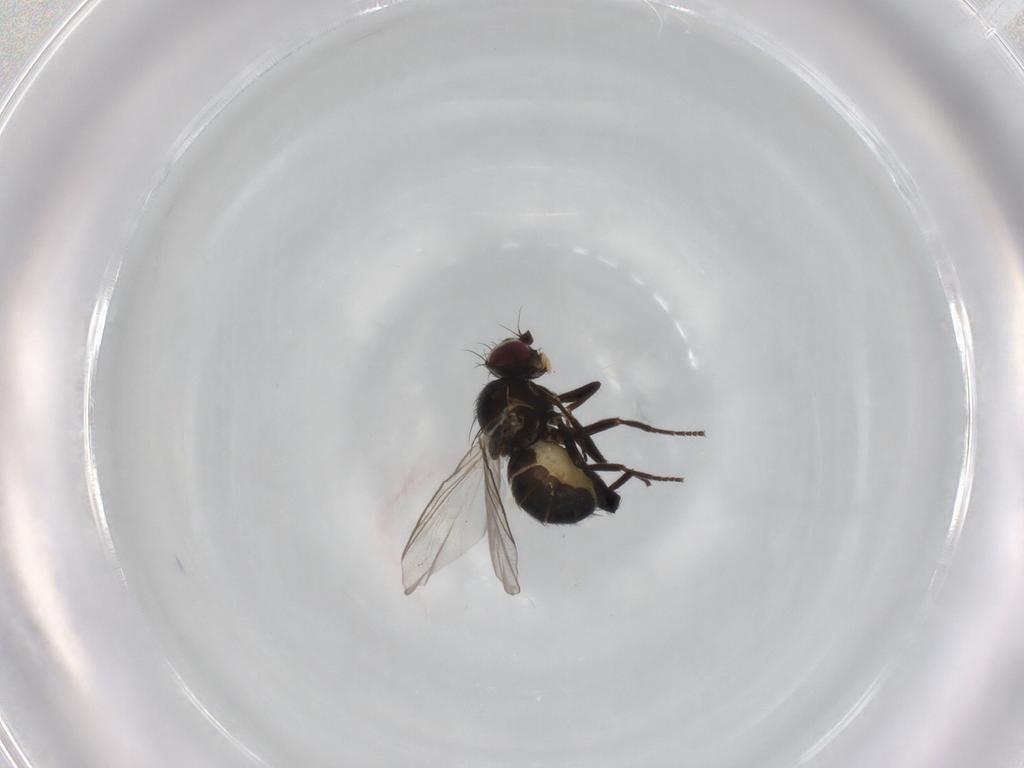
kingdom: Animalia
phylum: Arthropoda
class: Insecta
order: Diptera
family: Agromyzidae
